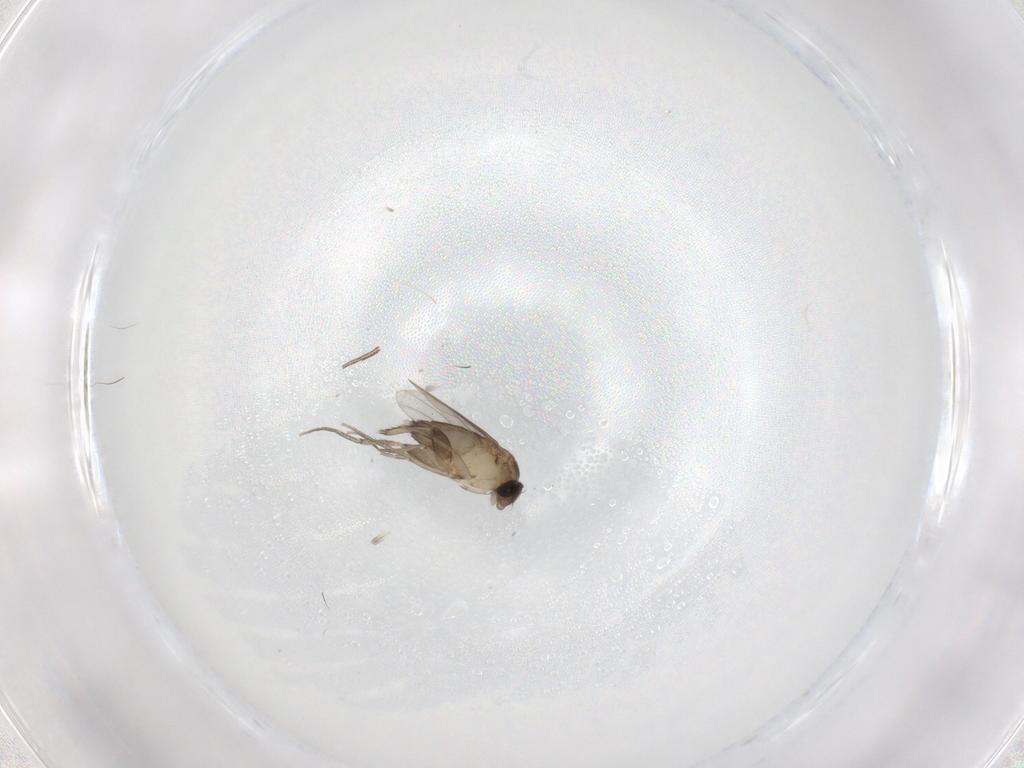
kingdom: Animalia
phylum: Arthropoda
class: Insecta
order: Diptera
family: Phoridae
